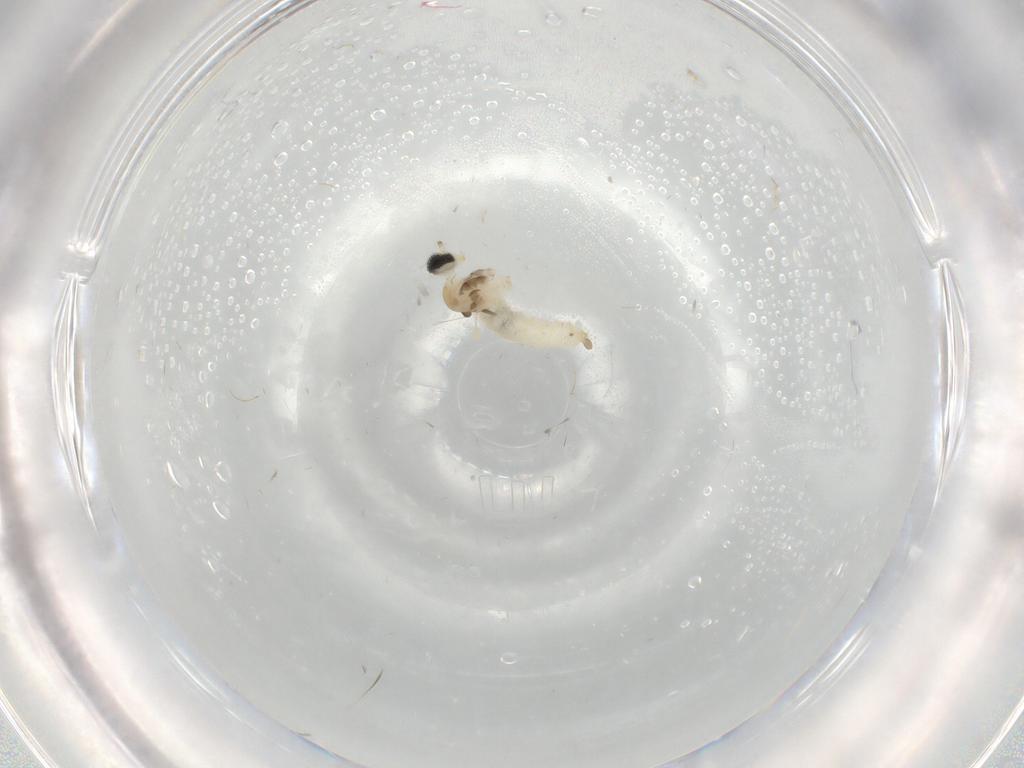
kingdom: Animalia
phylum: Arthropoda
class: Insecta
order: Diptera
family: Cecidomyiidae
